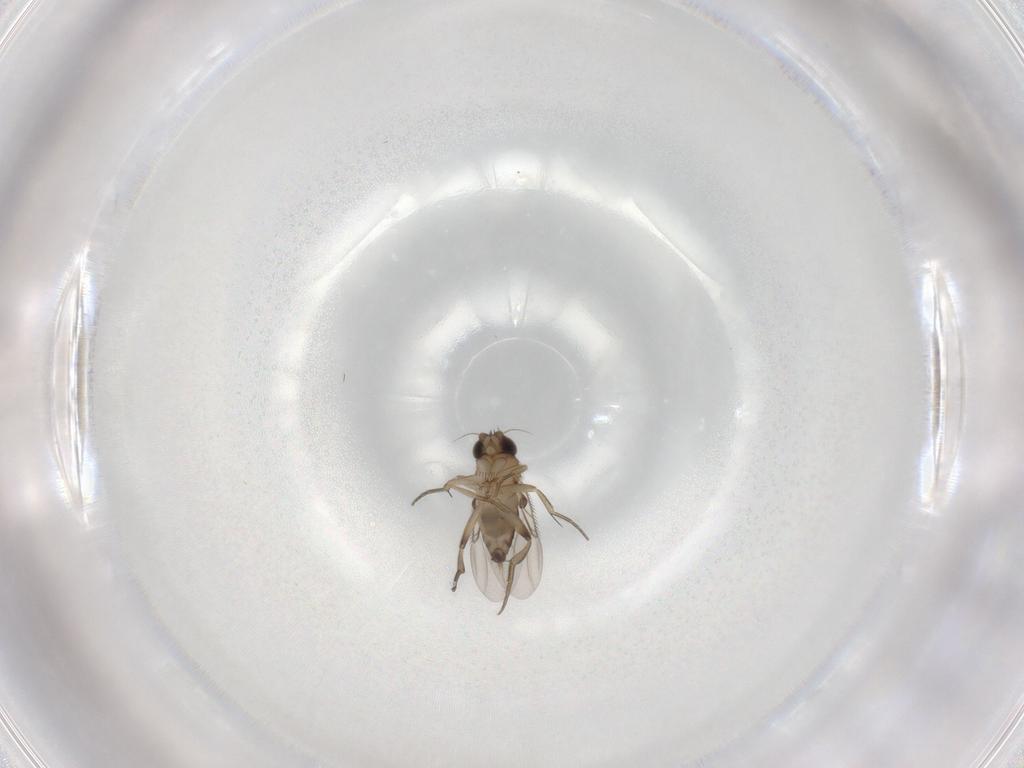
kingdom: Animalia
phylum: Arthropoda
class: Insecta
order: Diptera
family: Phoridae
